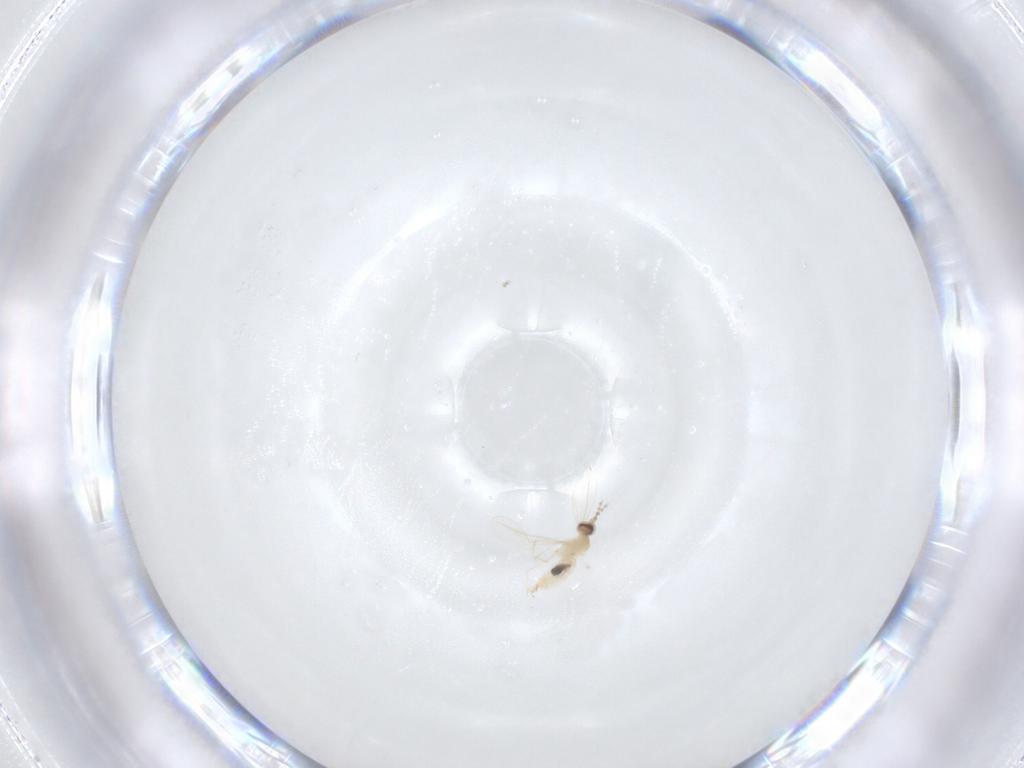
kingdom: Animalia
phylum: Arthropoda
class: Insecta
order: Diptera
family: Cecidomyiidae
